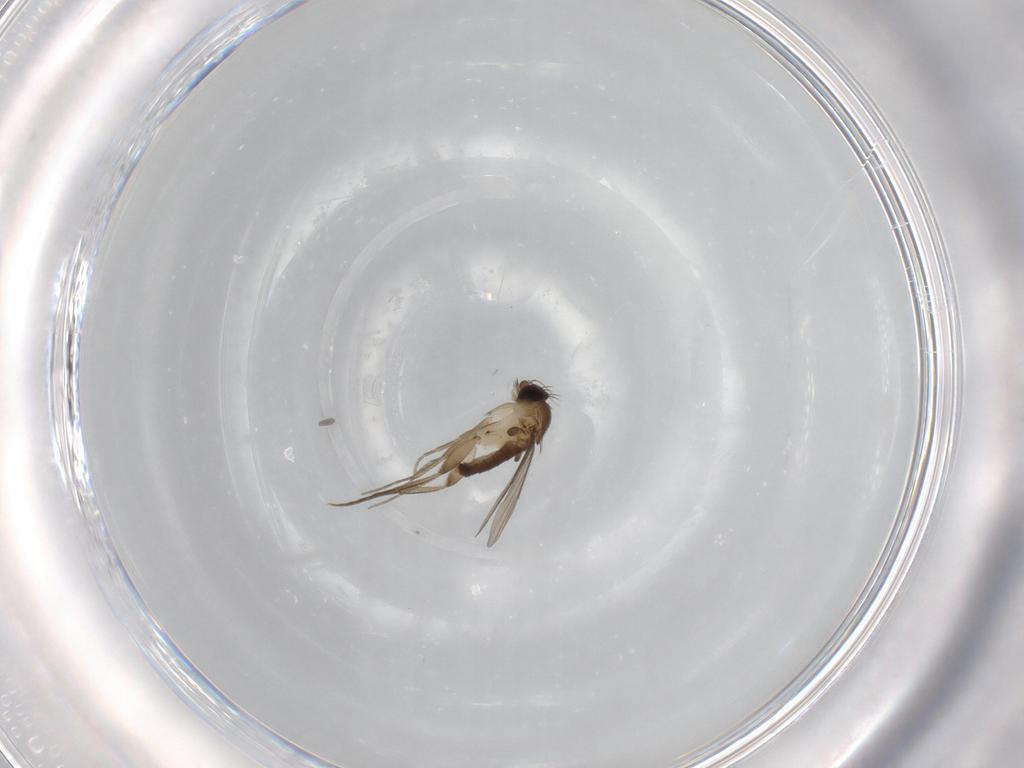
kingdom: Animalia
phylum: Arthropoda
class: Insecta
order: Diptera
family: Phoridae
